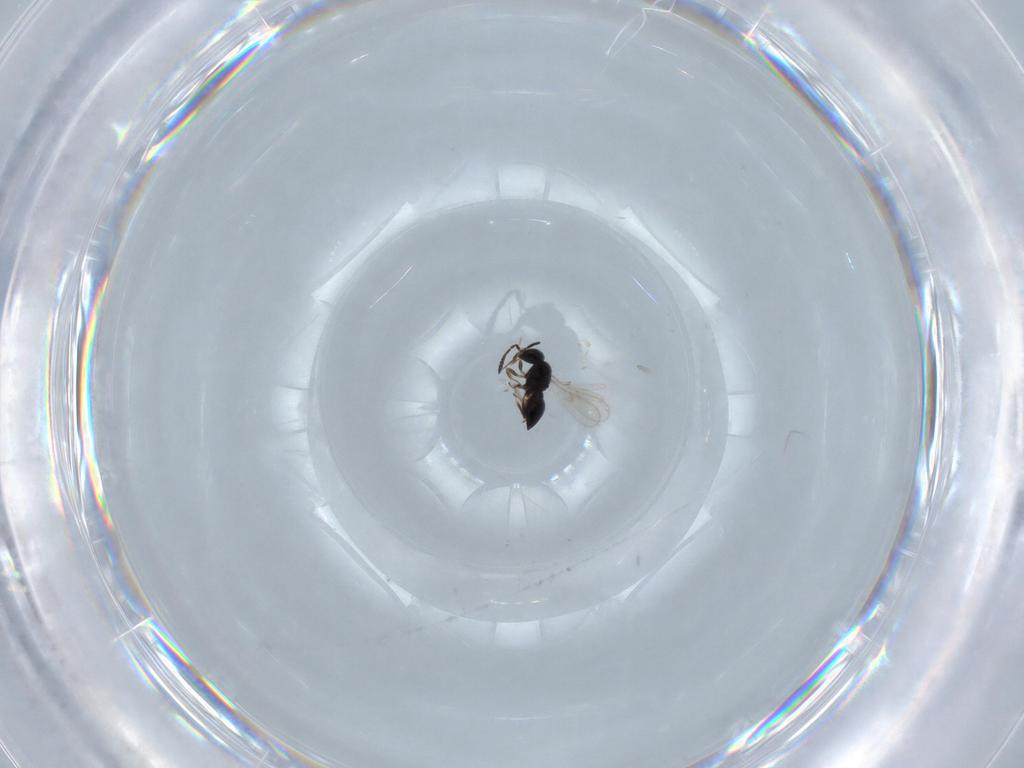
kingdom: Animalia
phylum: Arthropoda
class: Insecta
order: Hymenoptera
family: Scelionidae
